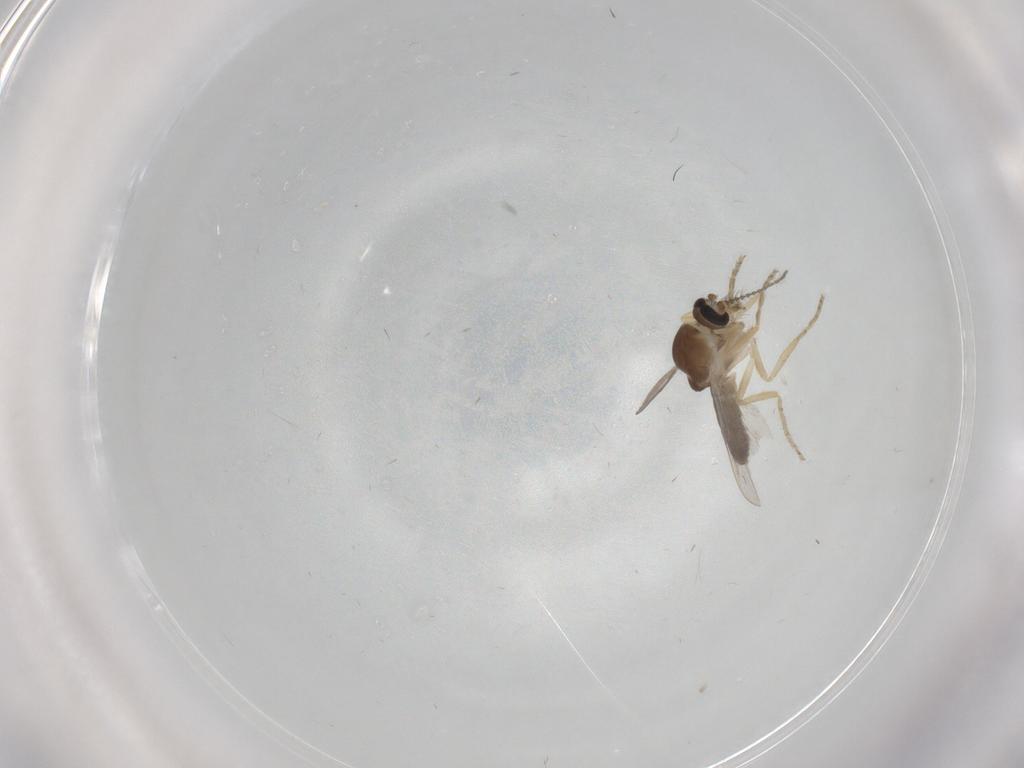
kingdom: Animalia
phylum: Arthropoda
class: Insecta
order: Diptera
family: Ceratopogonidae
